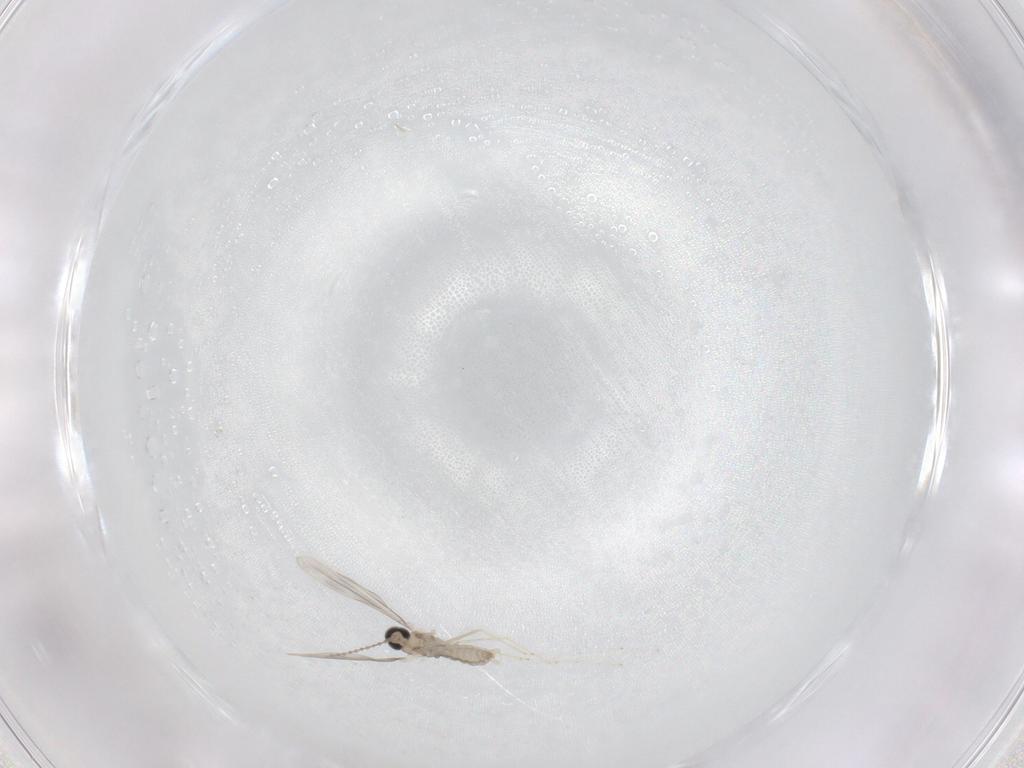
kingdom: Animalia
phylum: Arthropoda
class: Insecta
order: Diptera
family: Cecidomyiidae
